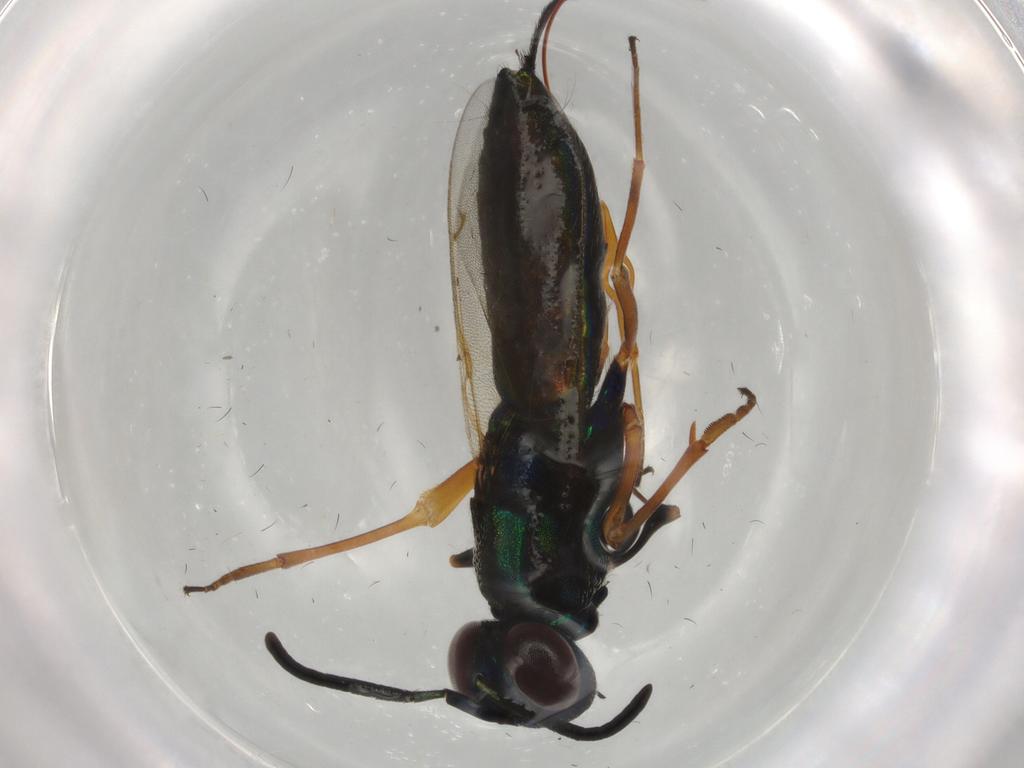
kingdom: Animalia
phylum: Arthropoda
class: Insecta
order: Hymenoptera
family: Eupelmidae
